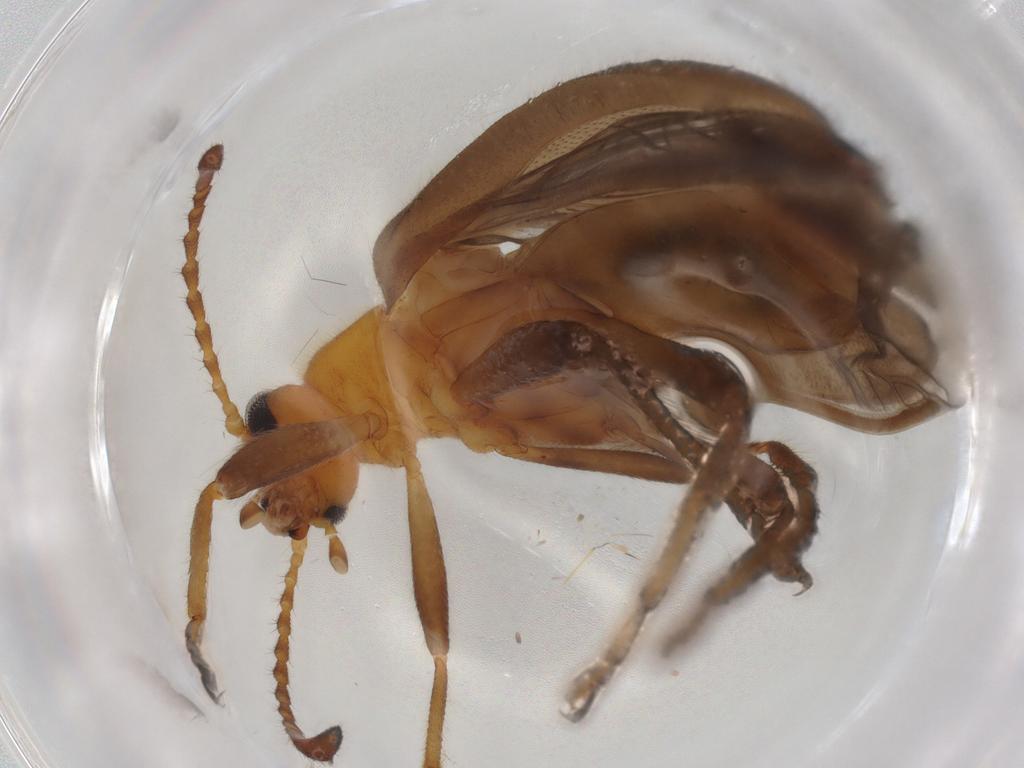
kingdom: Animalia
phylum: Arthropoda
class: Insecta
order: Coleoptera
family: Tenebrionidae
